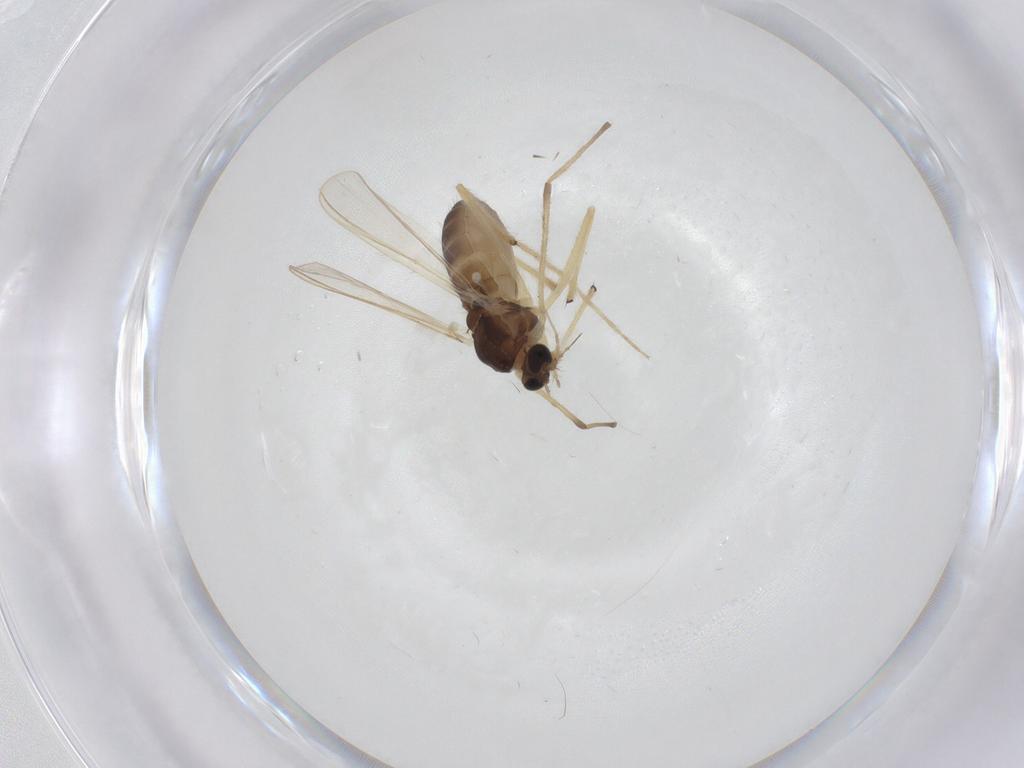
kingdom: Animalia
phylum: Arthropoda
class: Insecta
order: Diptera
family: Chironomidae
